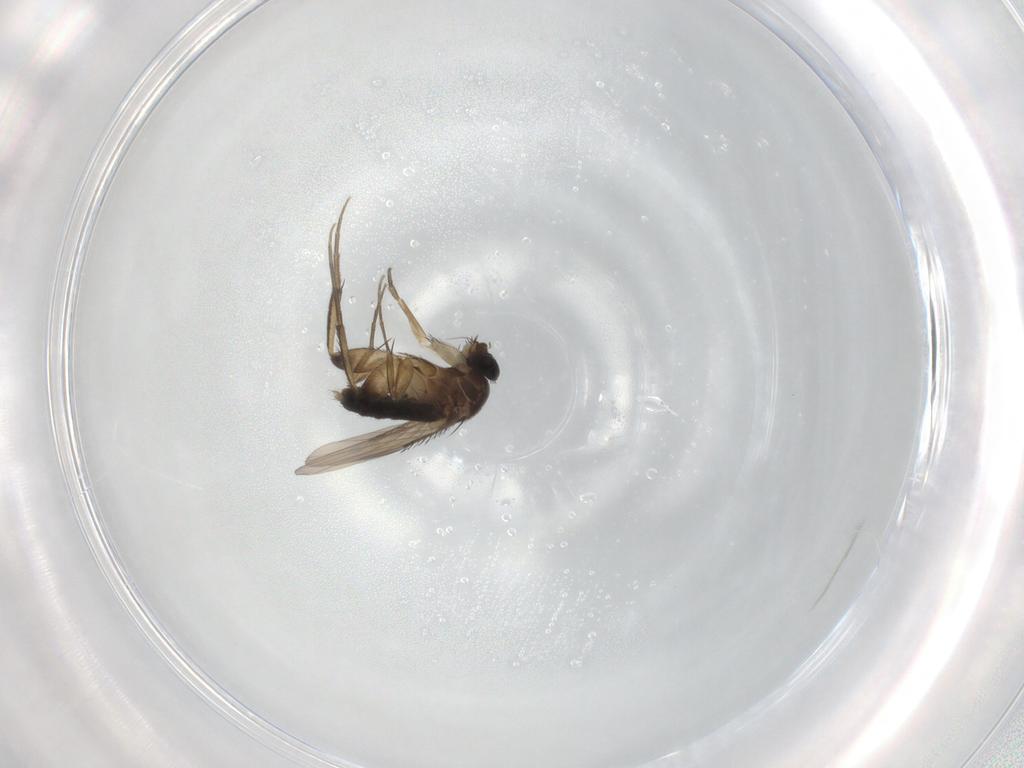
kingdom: Animalia
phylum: Arthropoda
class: Insecta
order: Diptera
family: Phoridae
